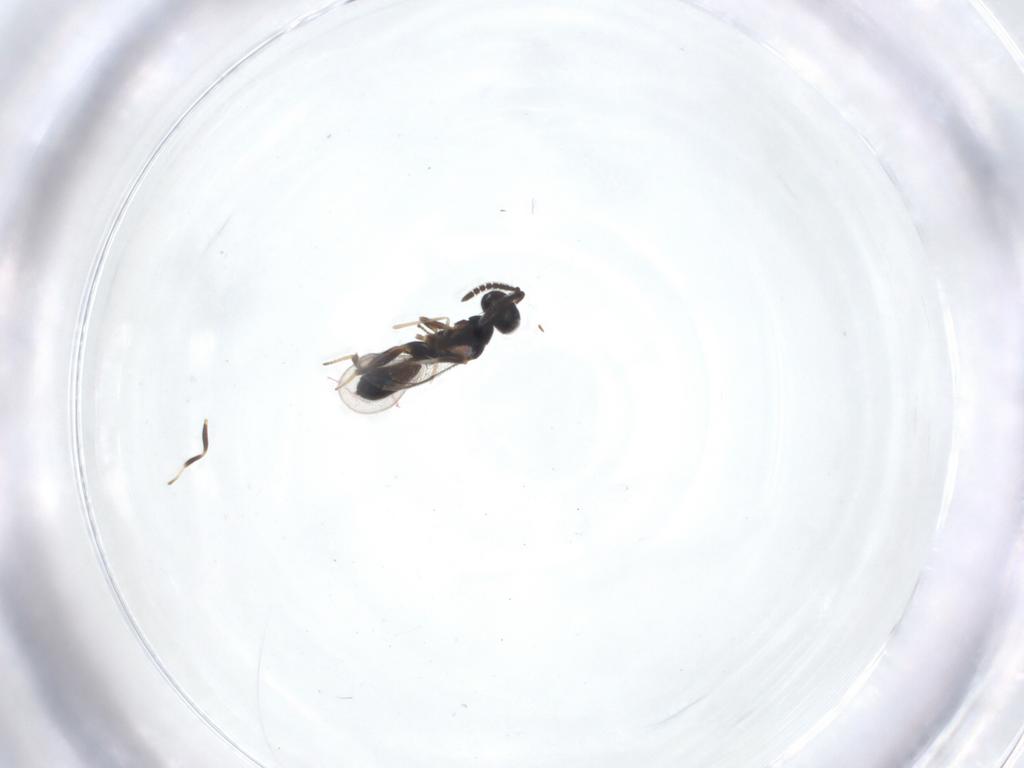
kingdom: Animalia
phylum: Arthropoda
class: Insecta
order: Hymenoptera
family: Cleonyminae
